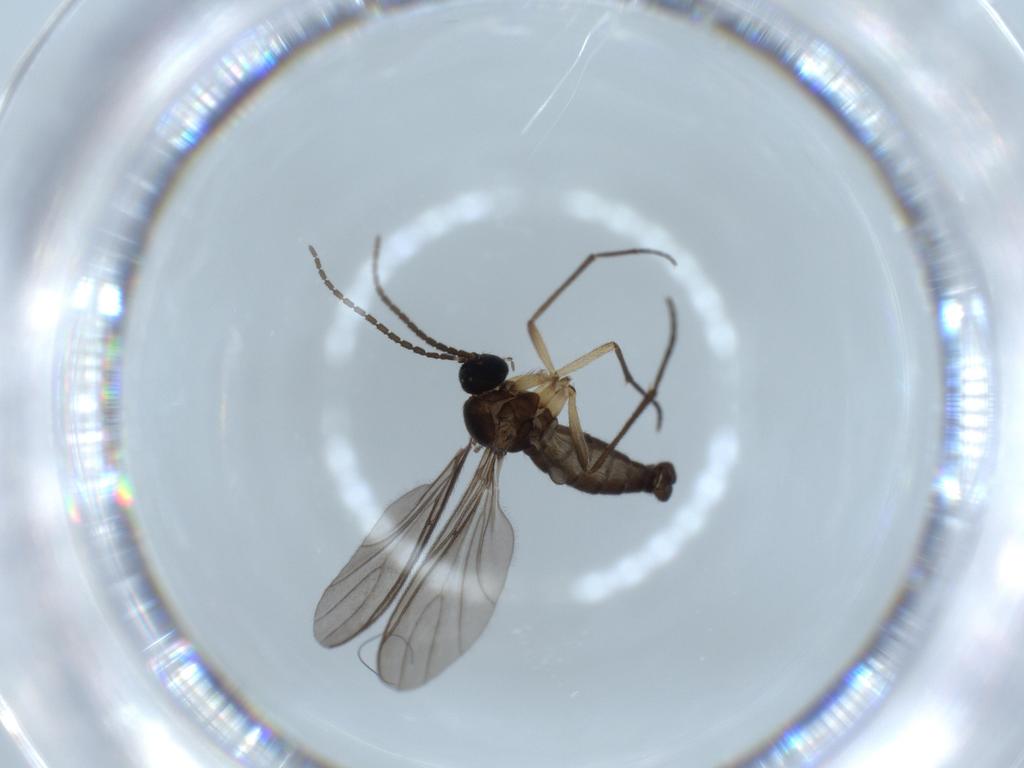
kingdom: Animalia
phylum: Arthropoda
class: Insecta
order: Diptera
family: Sciaridae
